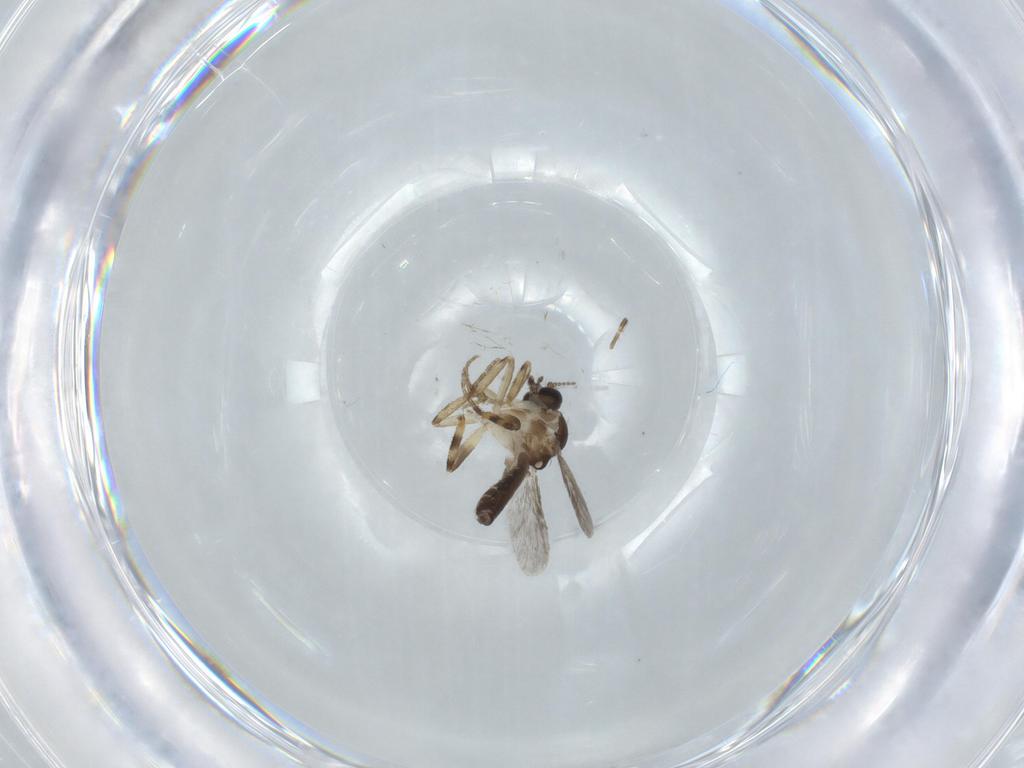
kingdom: Animalia
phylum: Arthropoda
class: Insecta
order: Diptera
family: Ceratopogonidae
